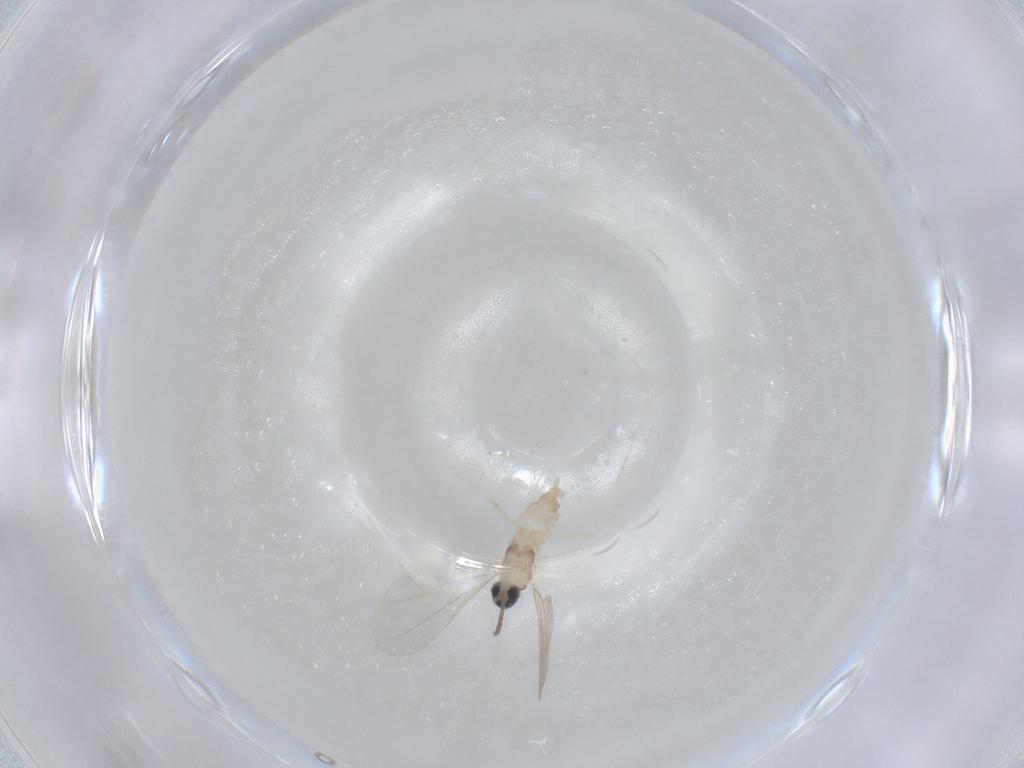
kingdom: Animalia
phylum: Arthropoda
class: Insecta
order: Diptera
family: Cecidomyiidae
